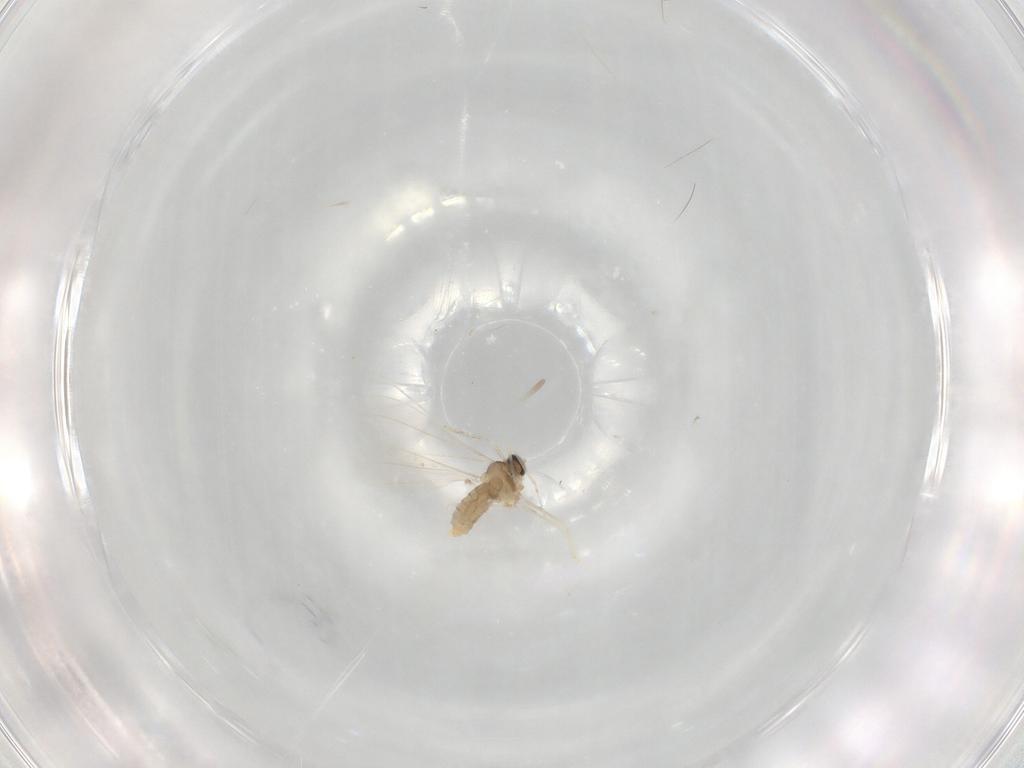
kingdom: Animalia
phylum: Arthropoda
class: Insecta
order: Diptera
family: Cecidomyiidae
